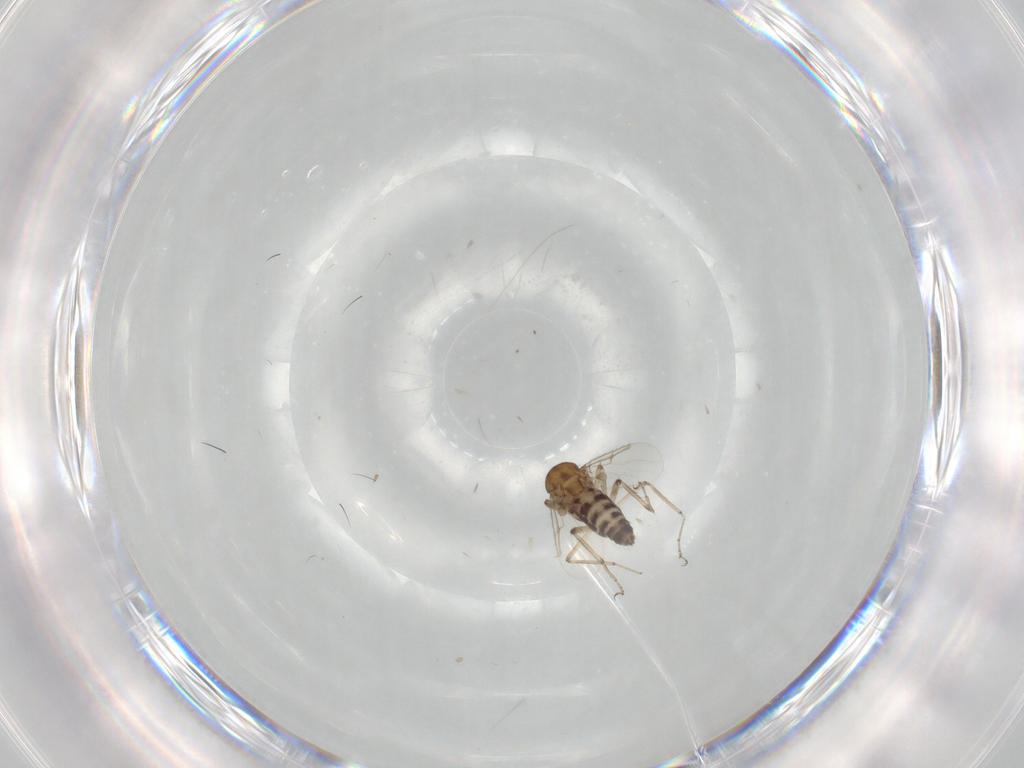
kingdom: Animalia
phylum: Arthropoda
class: Insecta
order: Diptera
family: Ceratopogonidae
